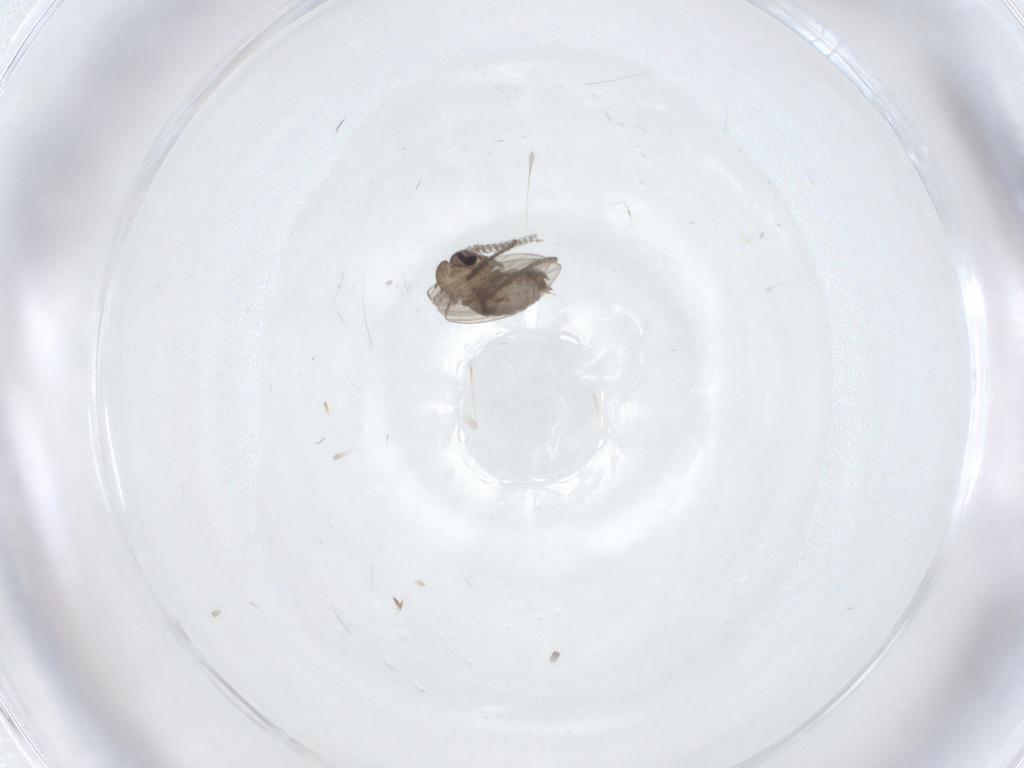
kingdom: Animalia
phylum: Arthropoda
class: Insecta
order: Diptera
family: Psychodidae
